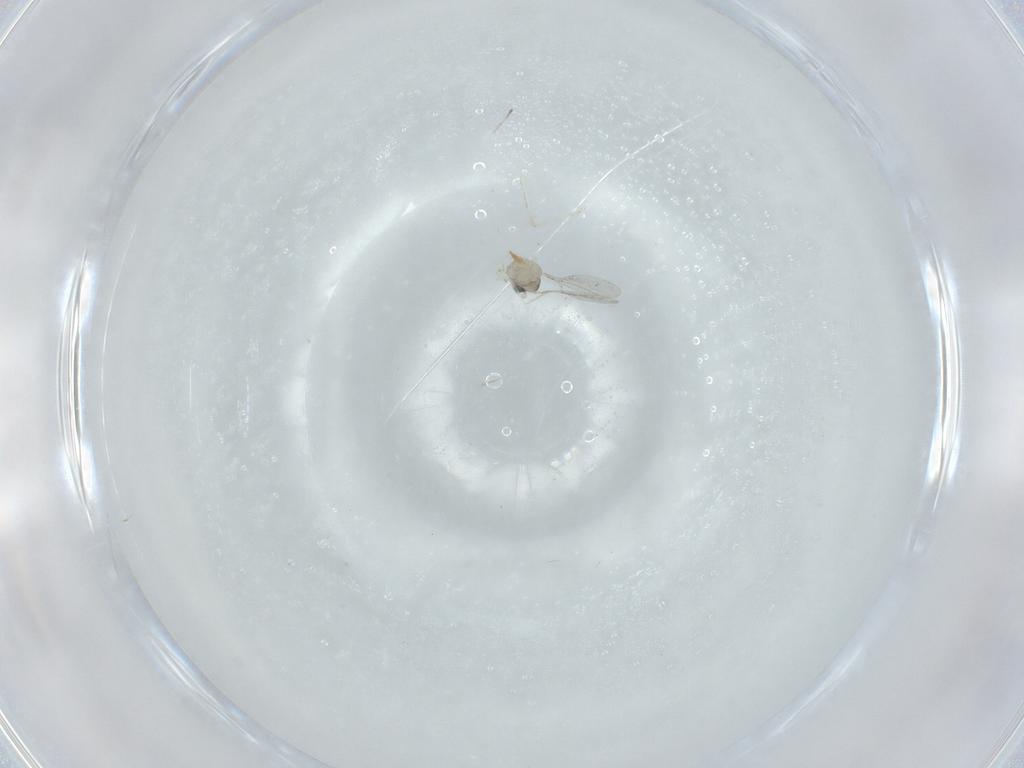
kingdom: Animalia
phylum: Arthropoda
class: Insecta
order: Diptera
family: Cecidomyiidae
